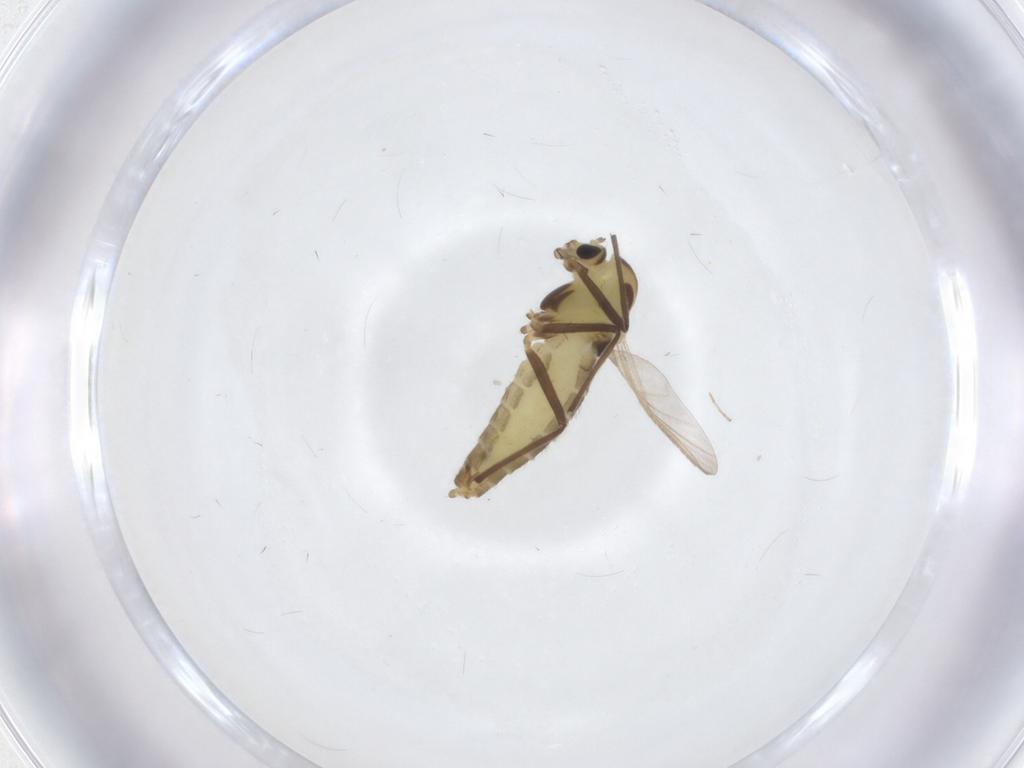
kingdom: Animalia
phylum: Arthropoda
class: Insecta
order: Diptera
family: Chironomidae
